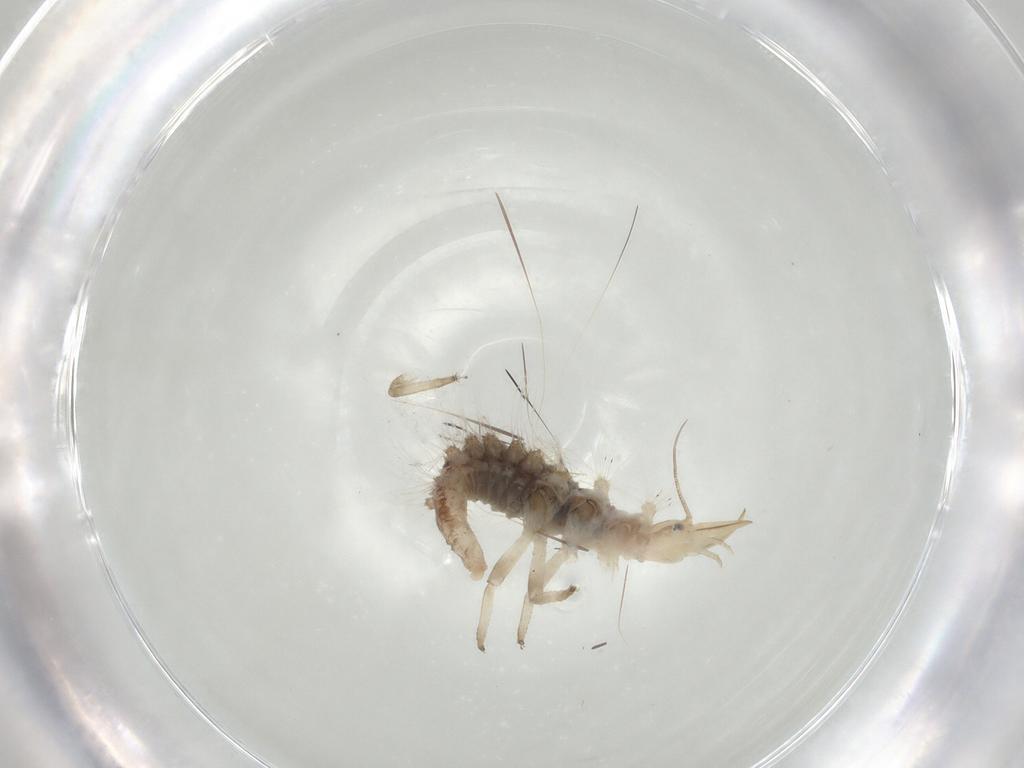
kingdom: Animalia
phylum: Arthropoda
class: Insecta
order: Neuroptera
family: Chrysopidae
